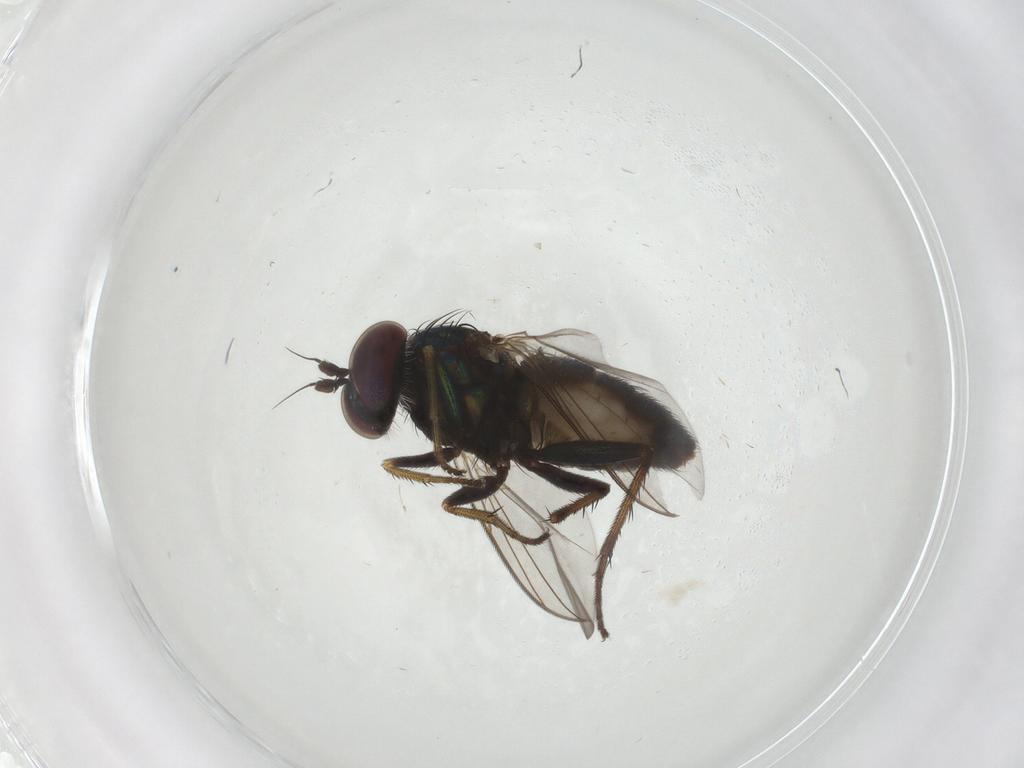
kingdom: Animalia
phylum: Arthropoda
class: Insecta
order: Diptera
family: Dolichopodidae
